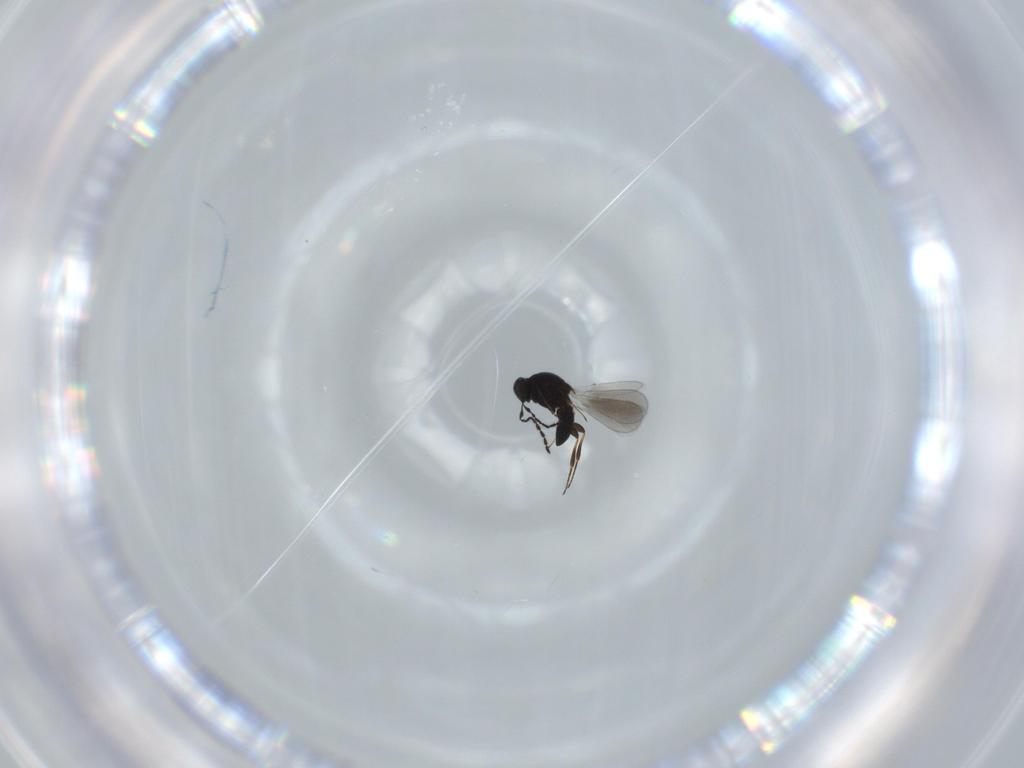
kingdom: Animalia
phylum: Arthropoda
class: Insecta
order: Hymenoptera
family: Platygastridae
